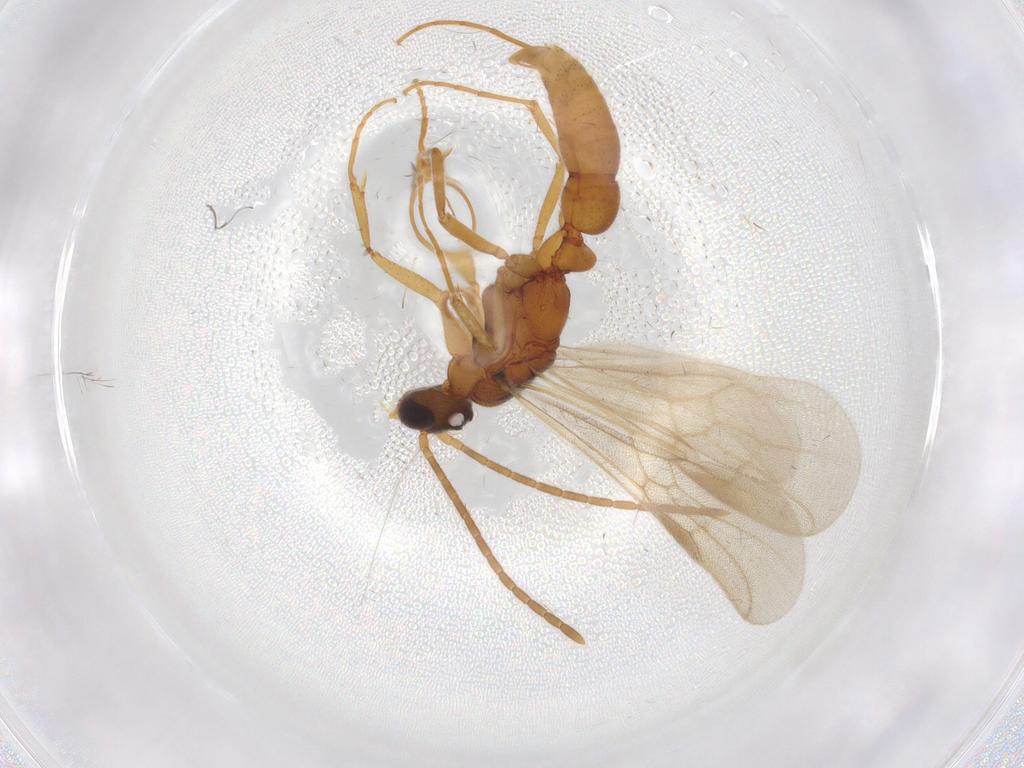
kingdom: Animalia
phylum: Arthropoda
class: Insecta
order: Hymenoptera
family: Formicidae
